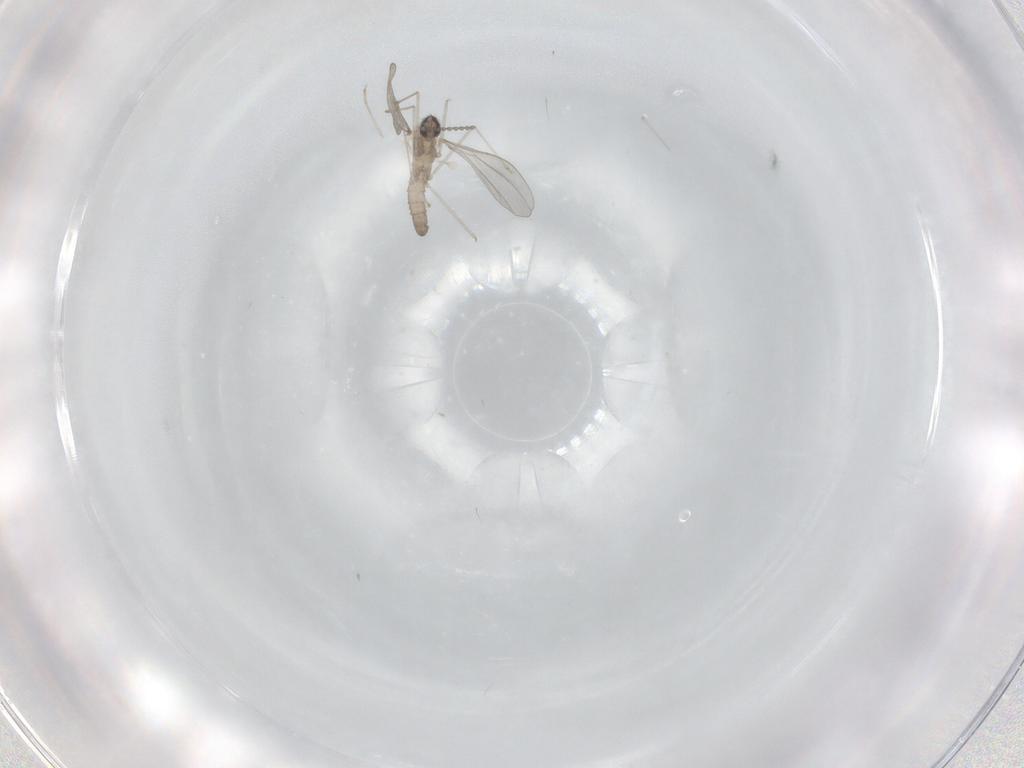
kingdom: Animalia
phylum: Arthropoda
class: Insecta
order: Diptera
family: Cecidomyiidae
